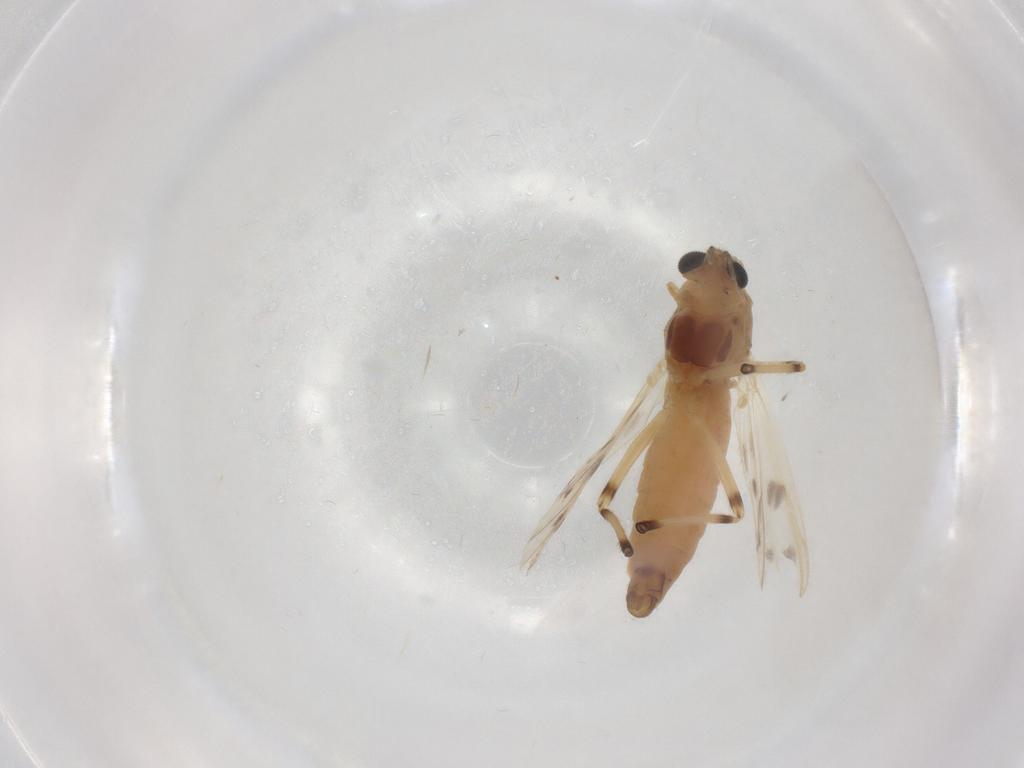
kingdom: Animalia
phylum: Arthropoda
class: Insecta
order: Diptera
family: Chironomidae
